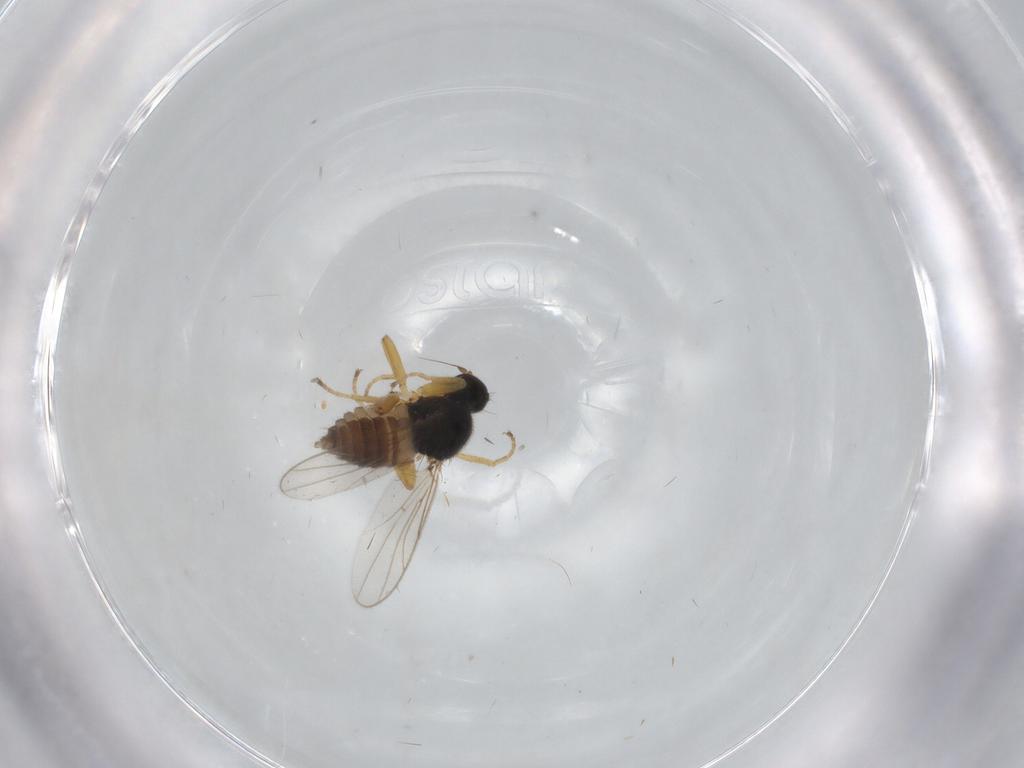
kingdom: Animalia
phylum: Arthropoda
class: Insecta
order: Diptera
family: Hybotidae
